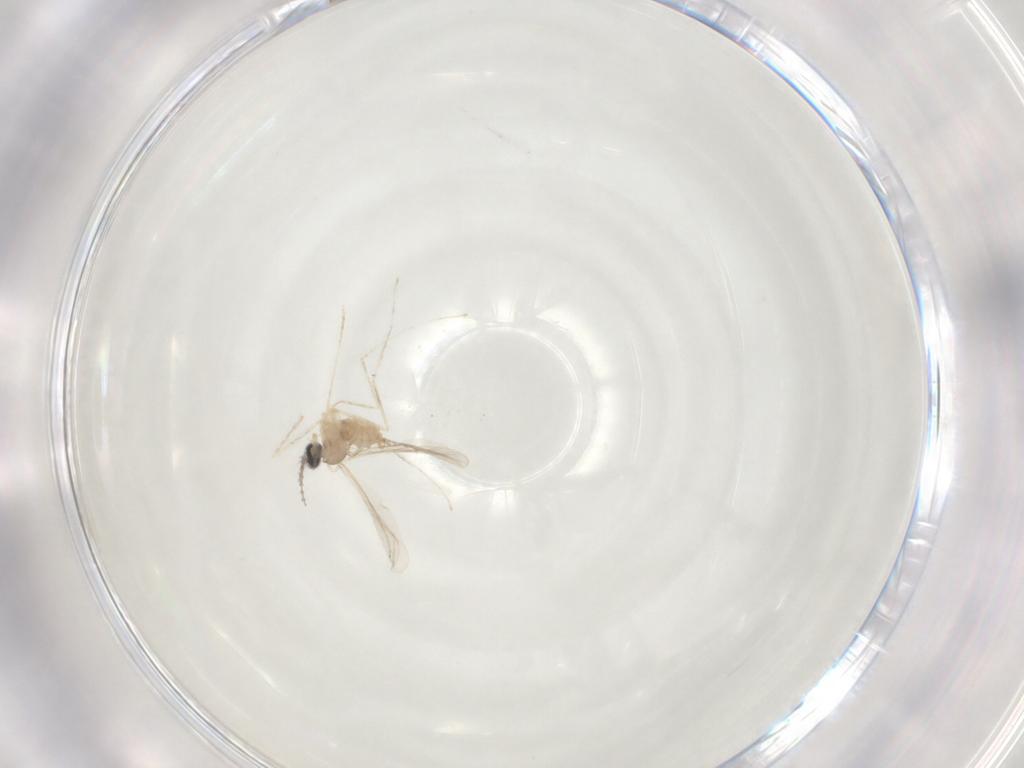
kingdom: Animalia
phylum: Arthropoda
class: Insecta
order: Diptera
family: Cecidomyiidae
